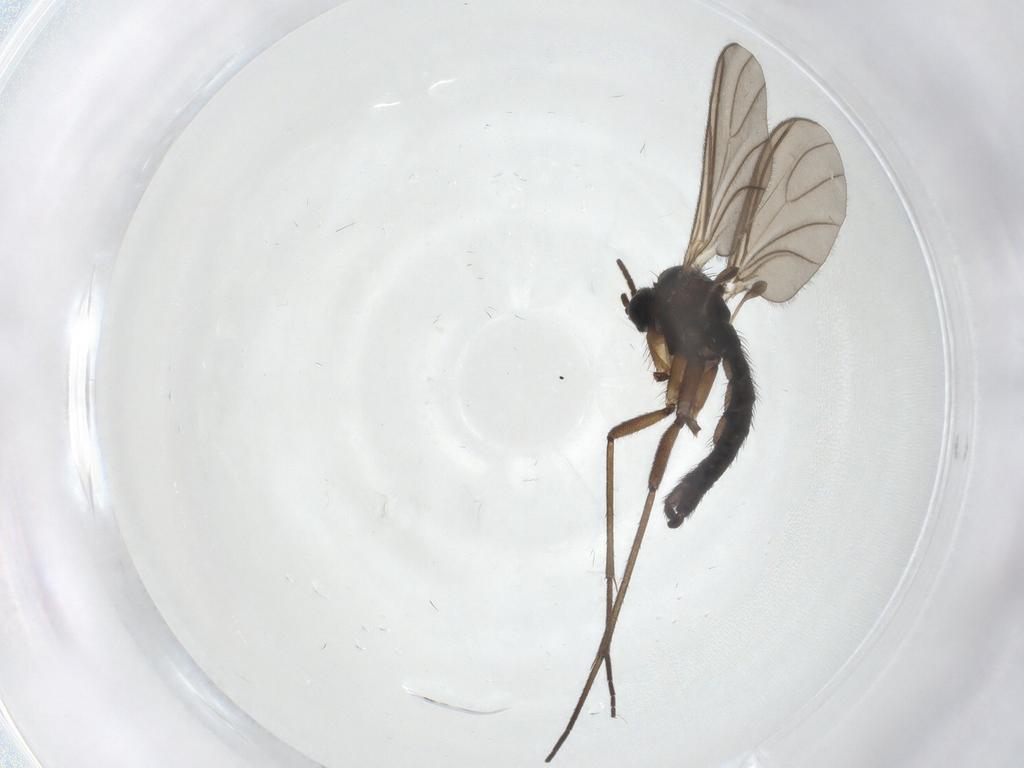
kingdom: Animalia
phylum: Arthropoda
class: Insecta
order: Diptera
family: Sciaridae
